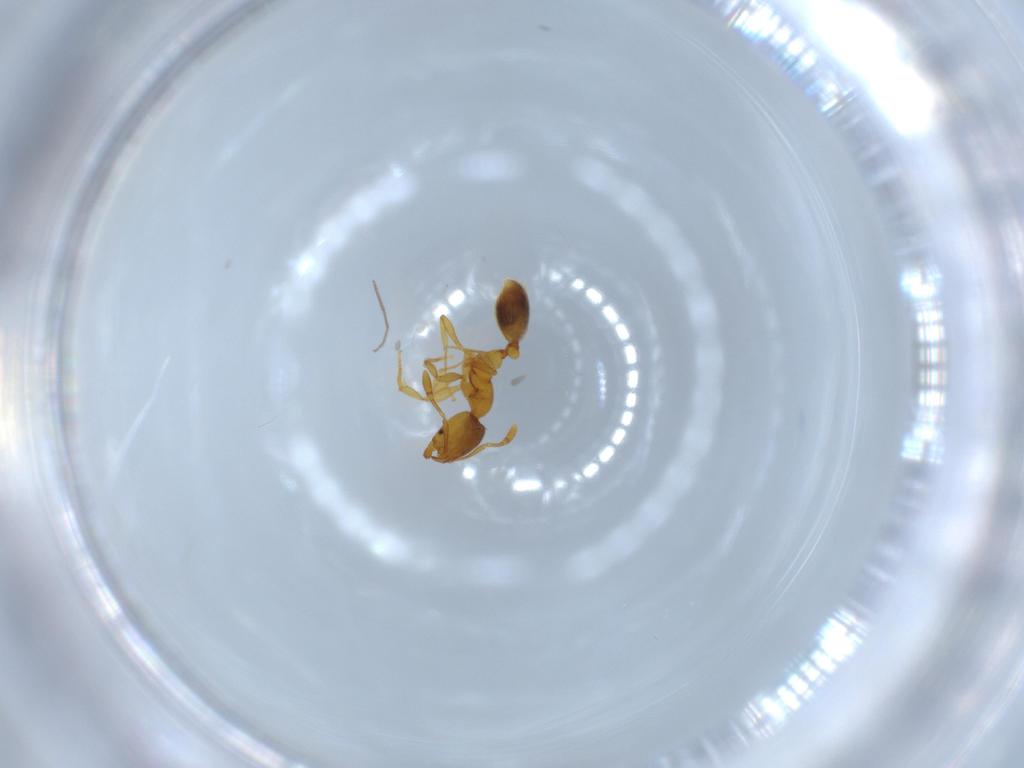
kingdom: Animalia
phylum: Arthropoda
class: Insecta
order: Hymenoptera
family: Formicidae
